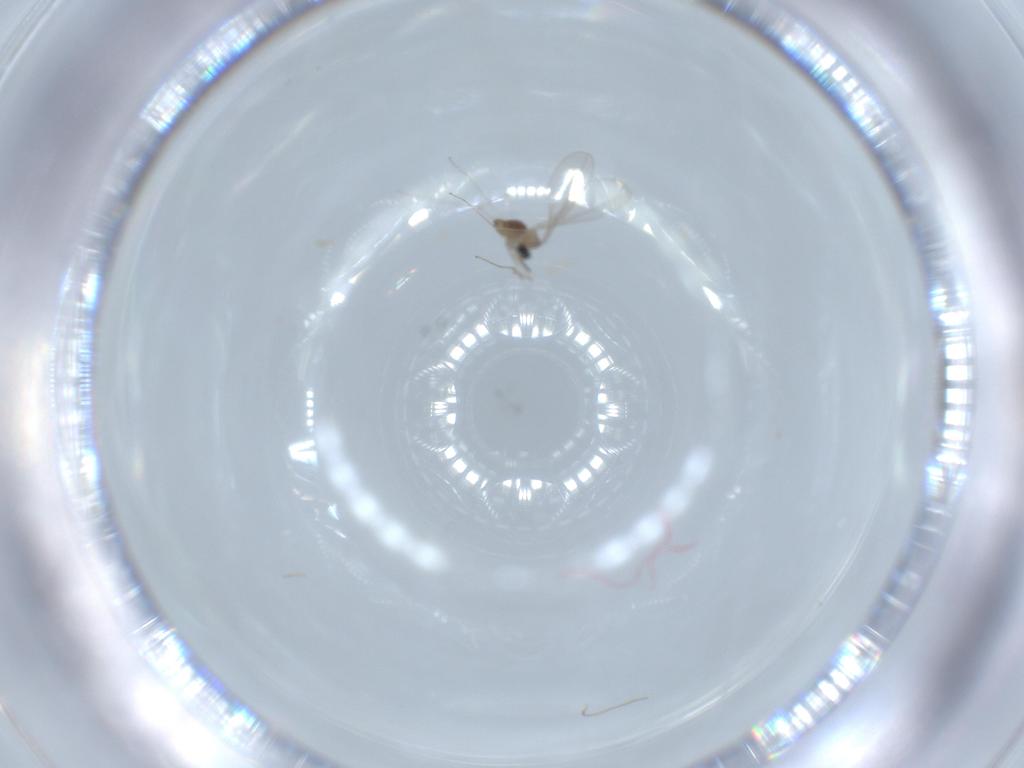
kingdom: Animalia
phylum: Arthropoda
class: Insecta
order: Diptera
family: Cecidomyiidae
